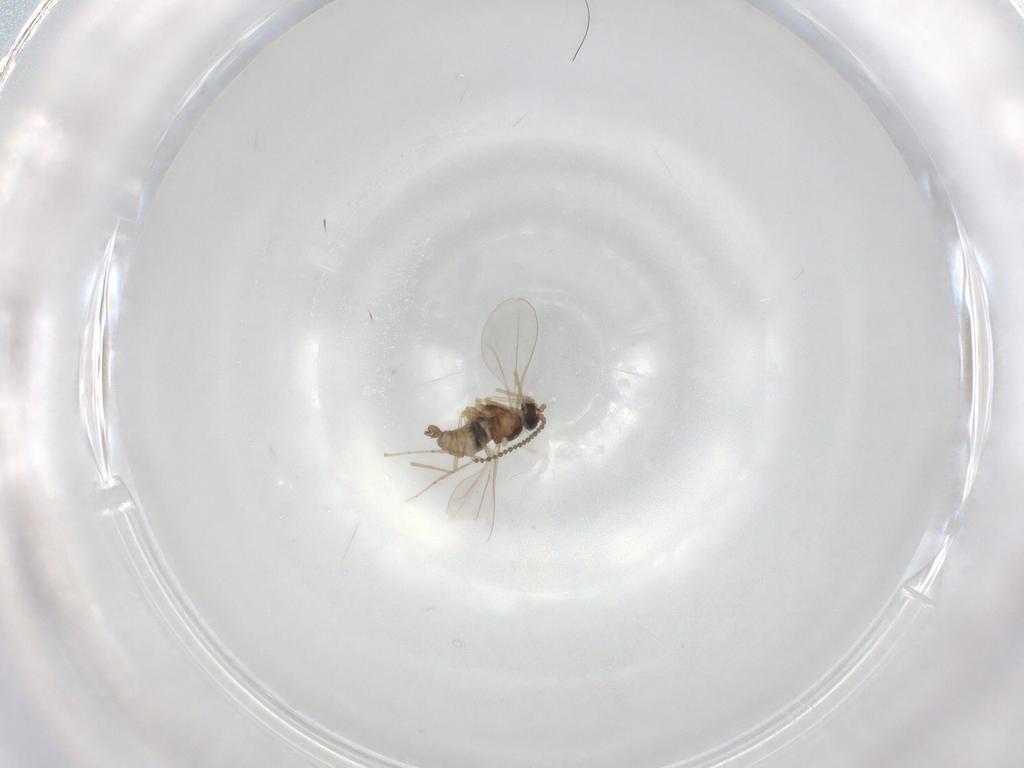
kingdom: Animalia
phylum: Arthropoda
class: Insecta
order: Diptera
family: Cecidomyiidae
